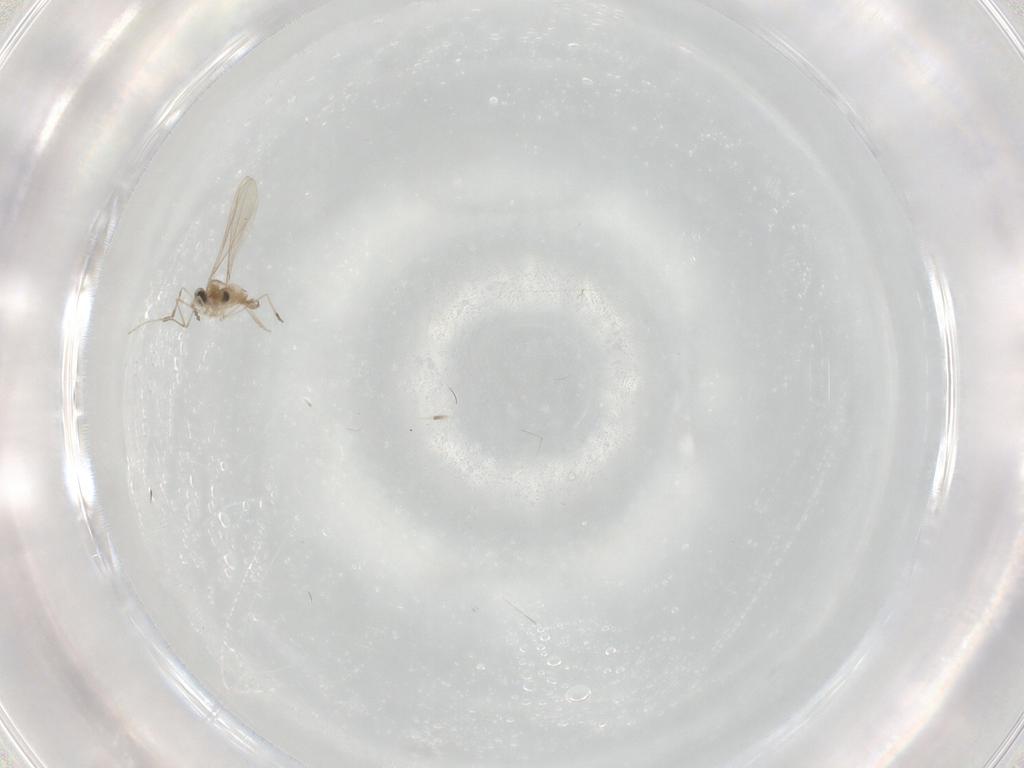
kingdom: Animalia
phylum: Arthropoda
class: Insecta
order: Diptera
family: Cecidomyiidae
